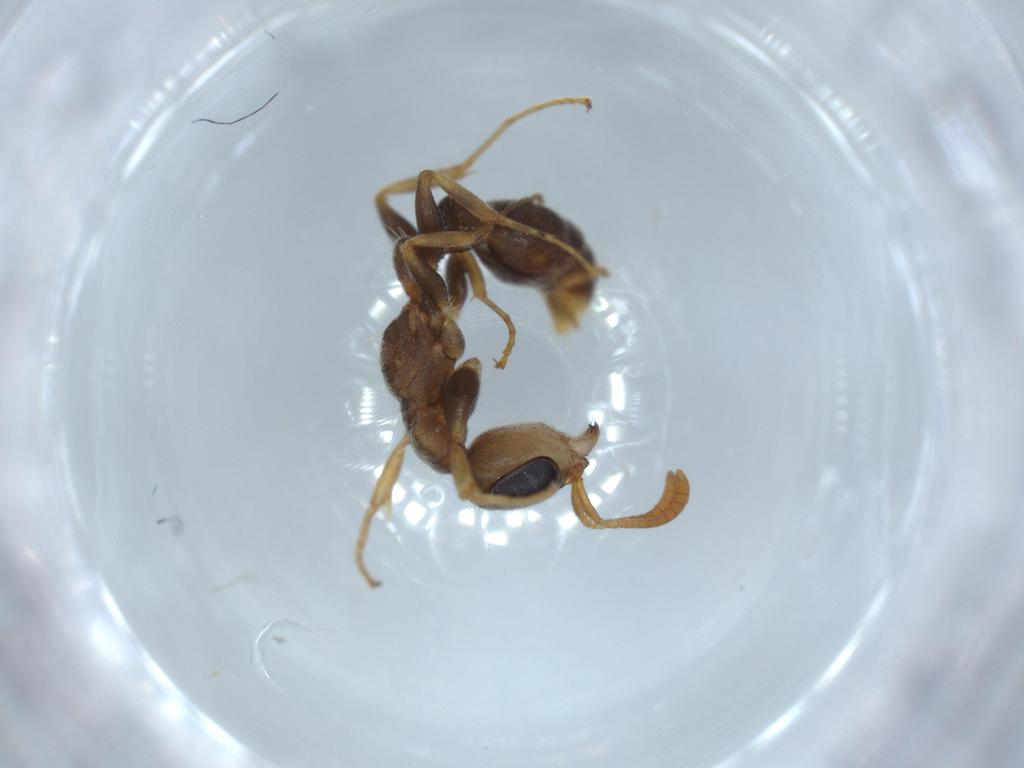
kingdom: Animalia
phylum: Arthropoda
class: Insecta
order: Hymenoptera
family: Formicidae
